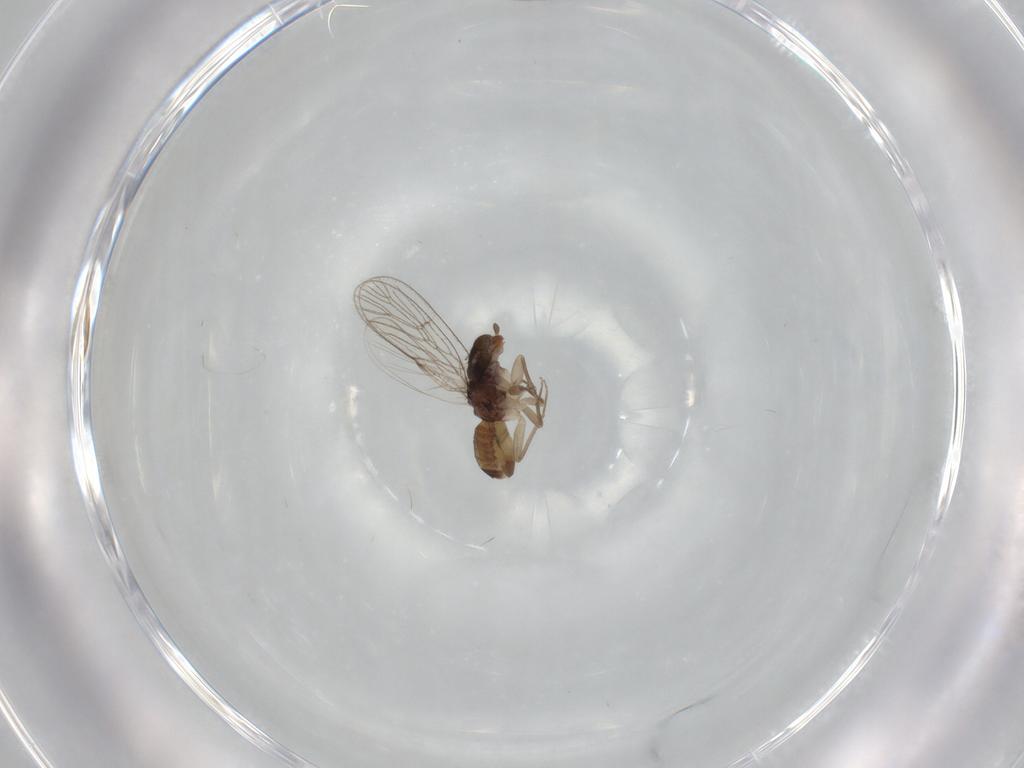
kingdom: Animalia
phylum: Arthropoda
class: Insecta
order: Psocodea
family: Psoquillidae
